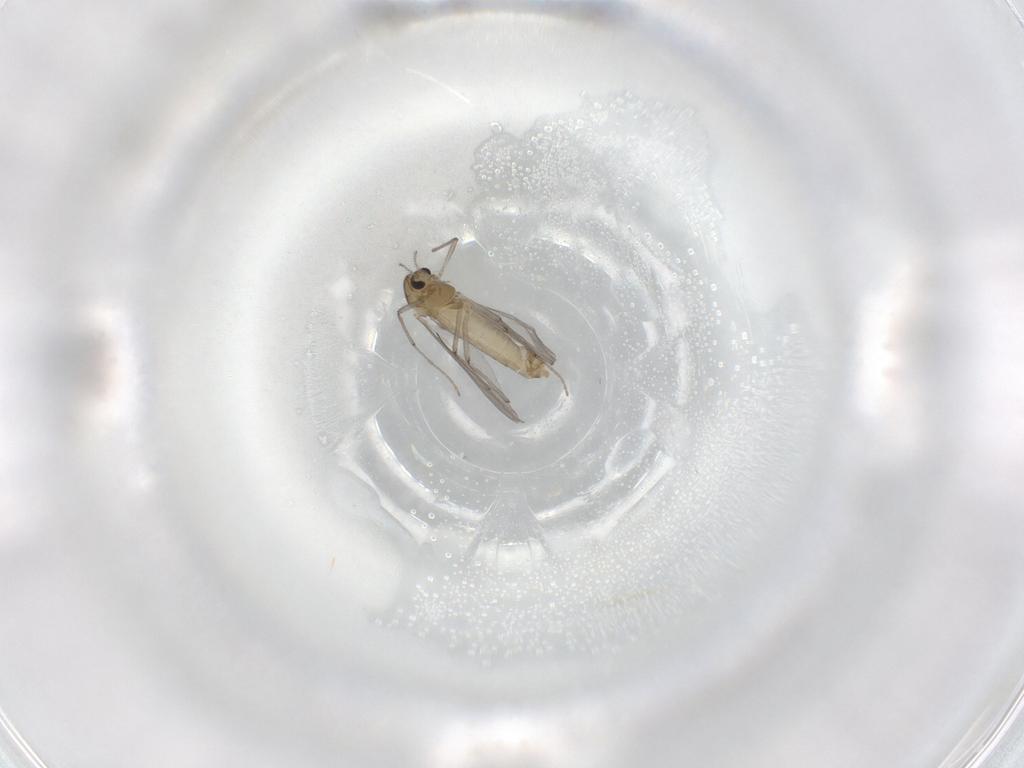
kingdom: Animalia
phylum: Arthropoda
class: Insecta
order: Diptera
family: Chironomidae
